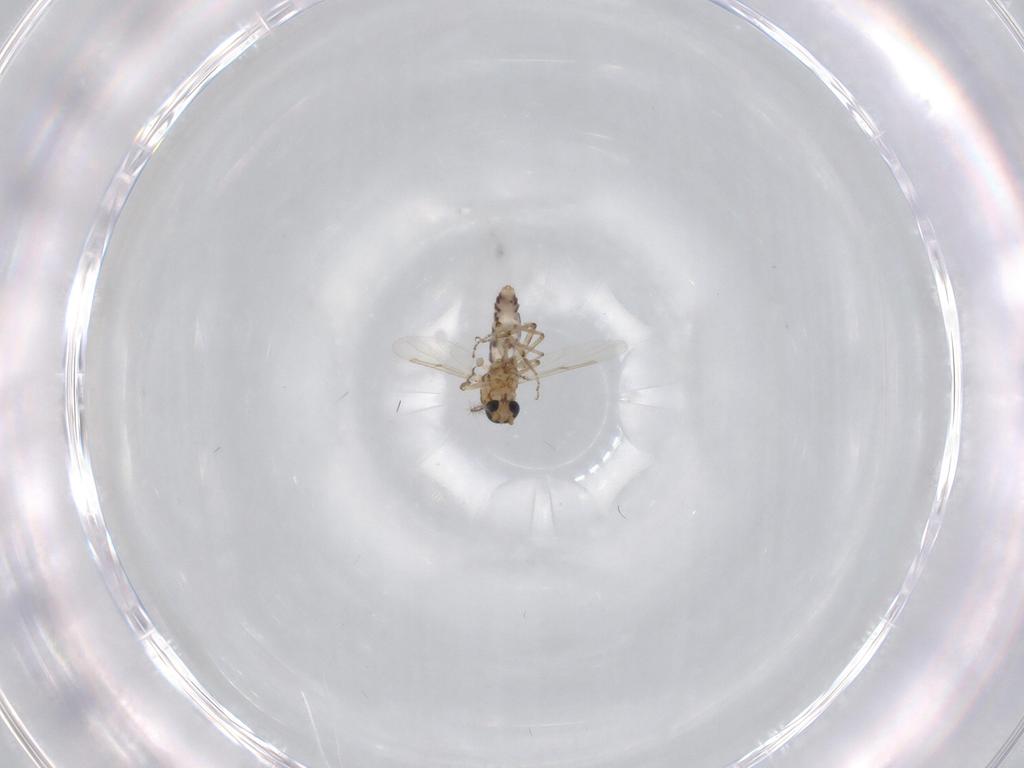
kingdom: Animalia
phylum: Arthropoda
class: Insecta
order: Diptera
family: Ceratopogonidae
